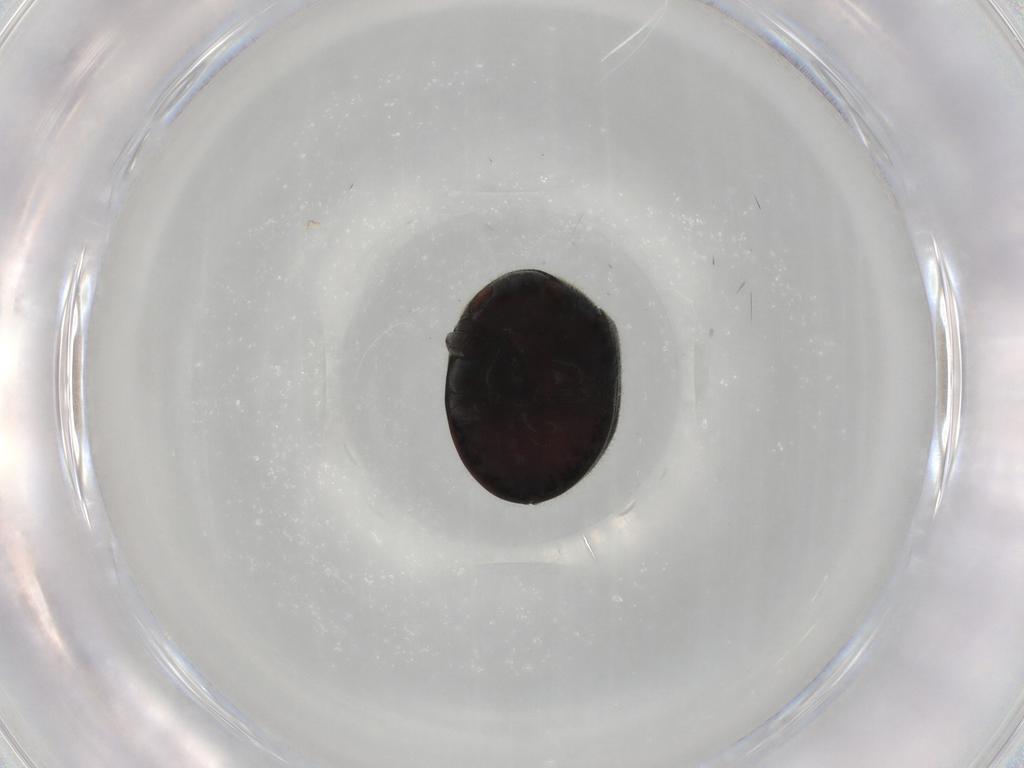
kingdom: Animalia
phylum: Arthropoda
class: Insecta
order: Coleoptera
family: Ptinidae
